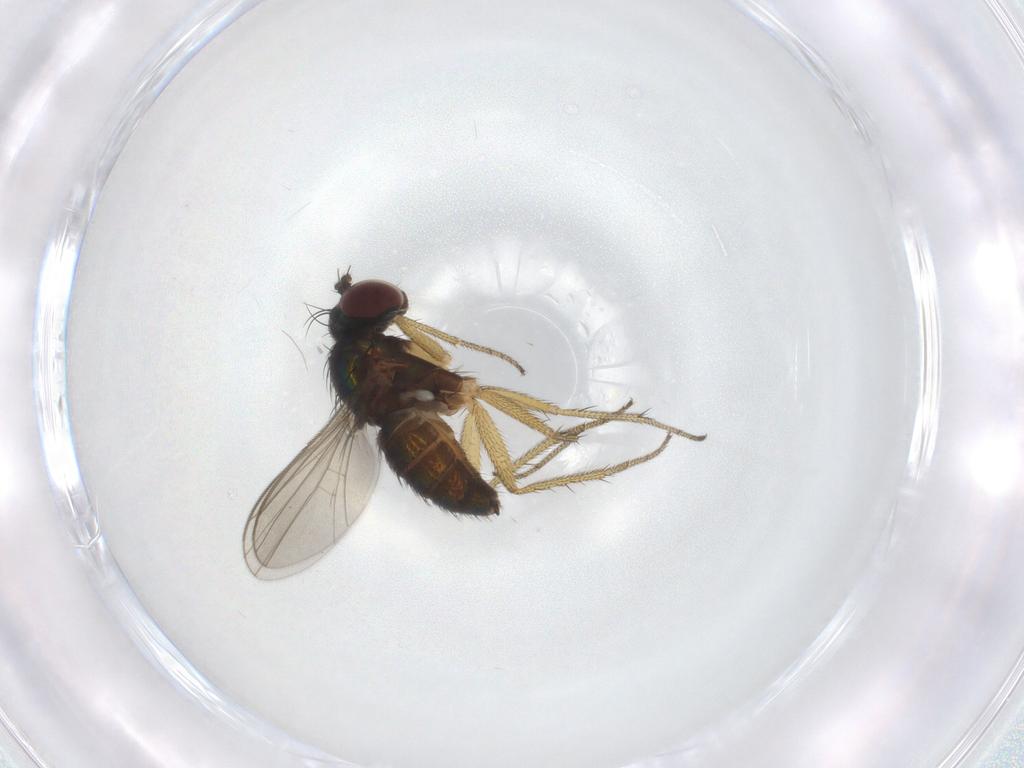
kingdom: Animalia
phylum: Arthropoda
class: Insecta
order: Diptera
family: Dolichopodidae
